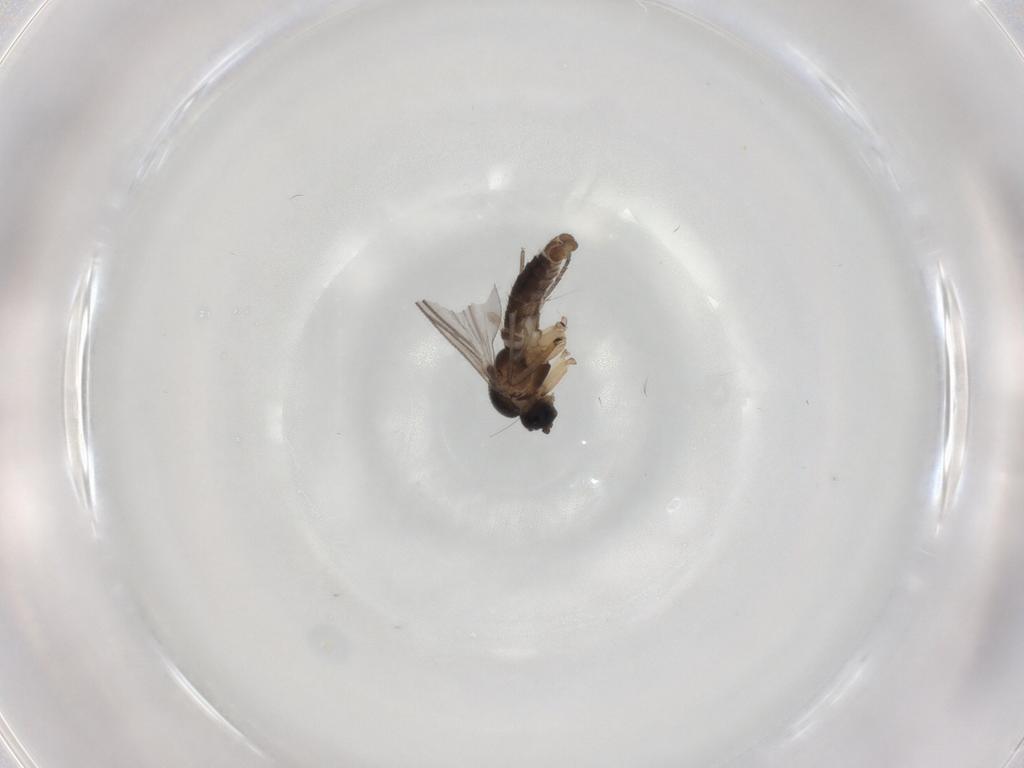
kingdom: Animalia
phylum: Arthropoda
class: Insecta
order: Diptera
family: Sciaridae
